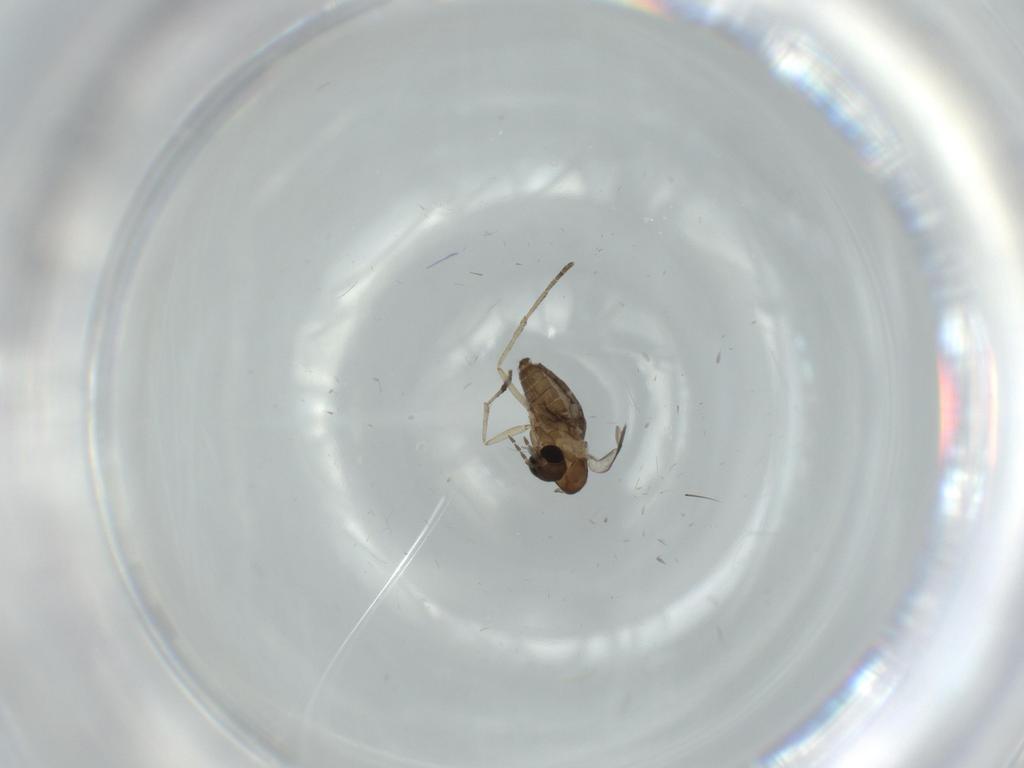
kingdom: Animalia
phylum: Arthropoda
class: Insecta
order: Diptera
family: Psychodidae
